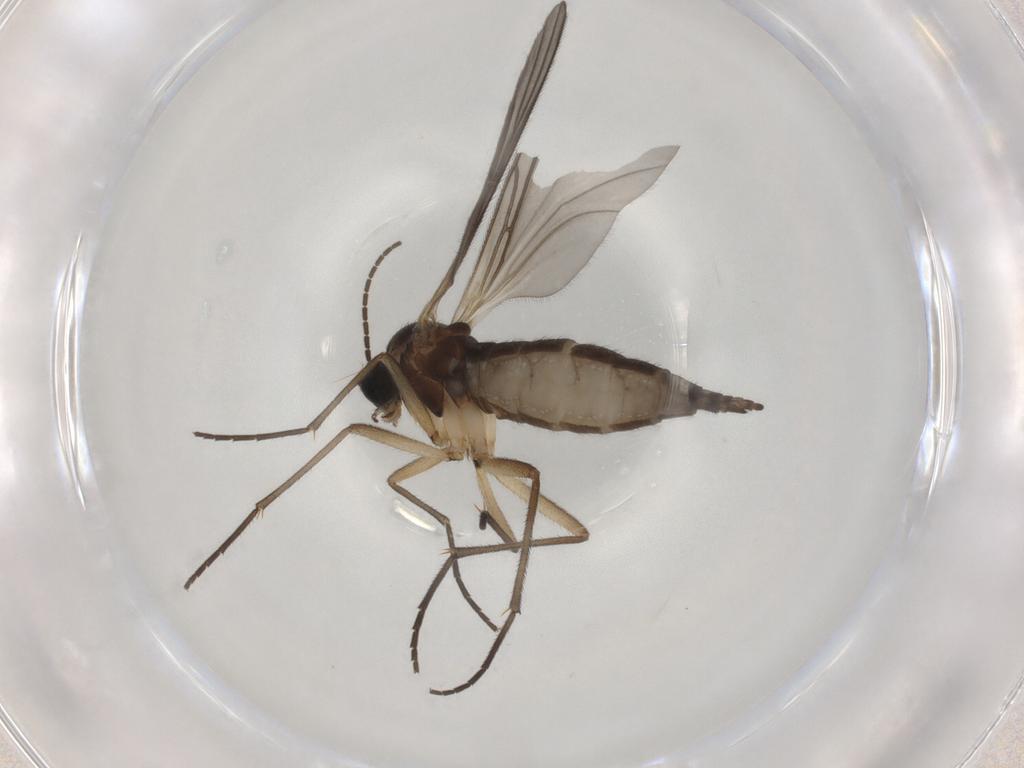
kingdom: Animalia
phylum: Arthropoda
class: Insecta
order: Diptera
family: Sciaridae
